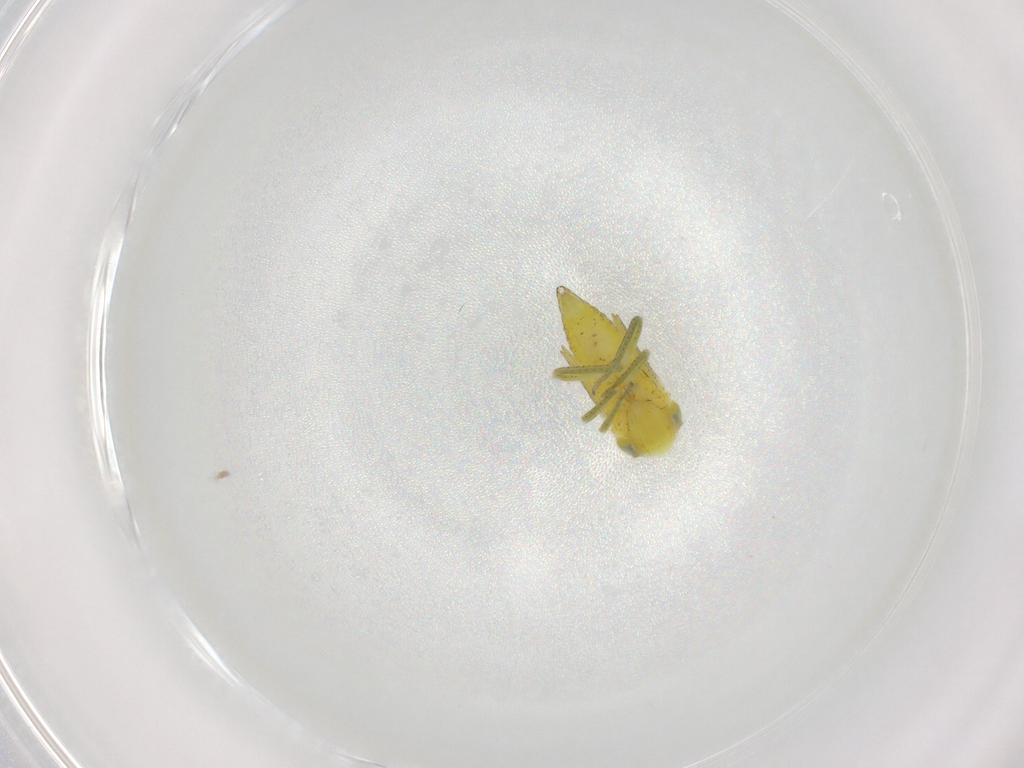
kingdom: Animalia
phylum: Arthropoda
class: Insecta
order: Hemiptera
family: Cicadellidae
